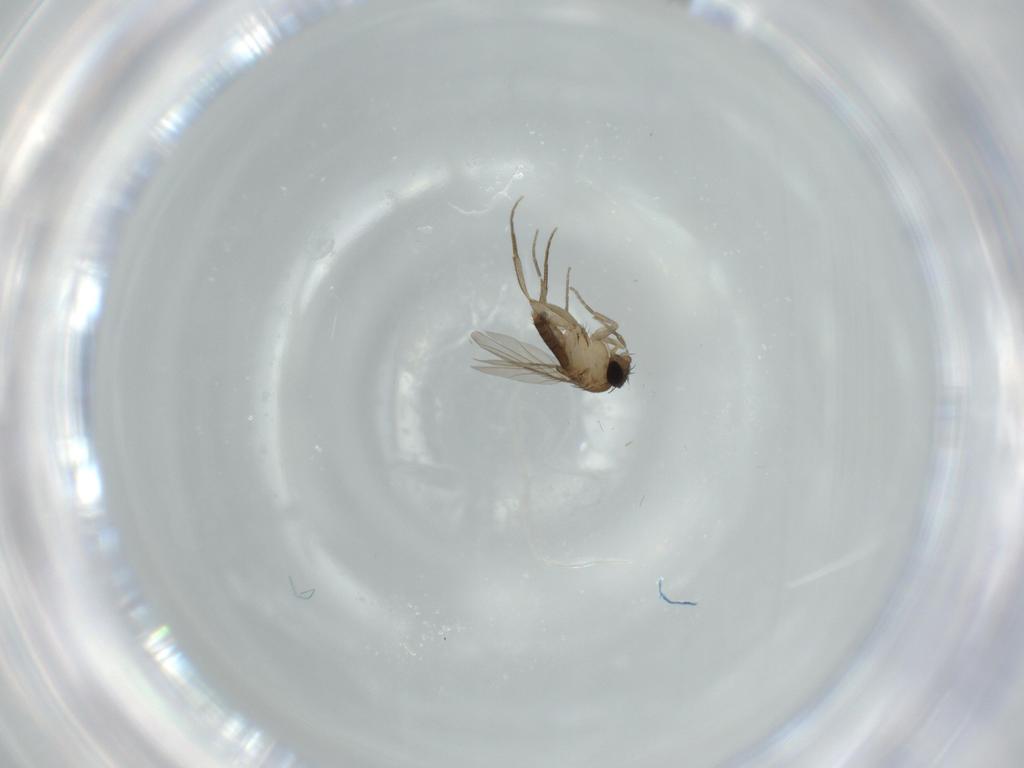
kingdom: Animalia
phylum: Arthropoda
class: Insecta
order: Diptera
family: Phoridae
